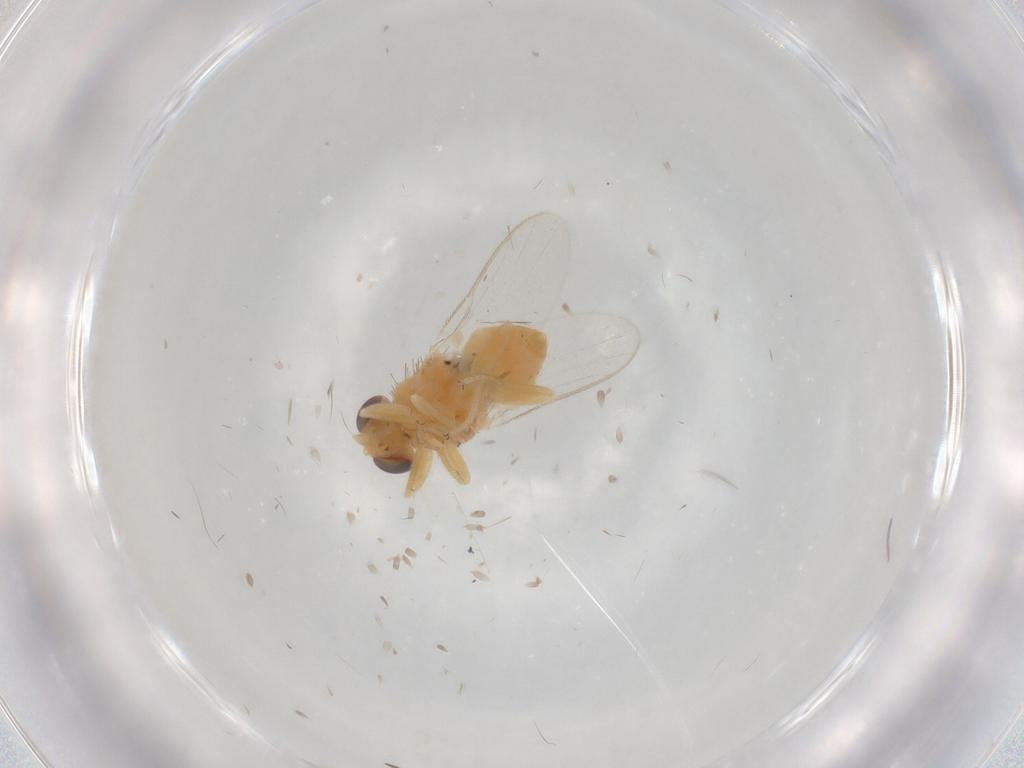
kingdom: Animalia
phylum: Arthropoda
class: Insecta
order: Diptera
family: Chloropidae
